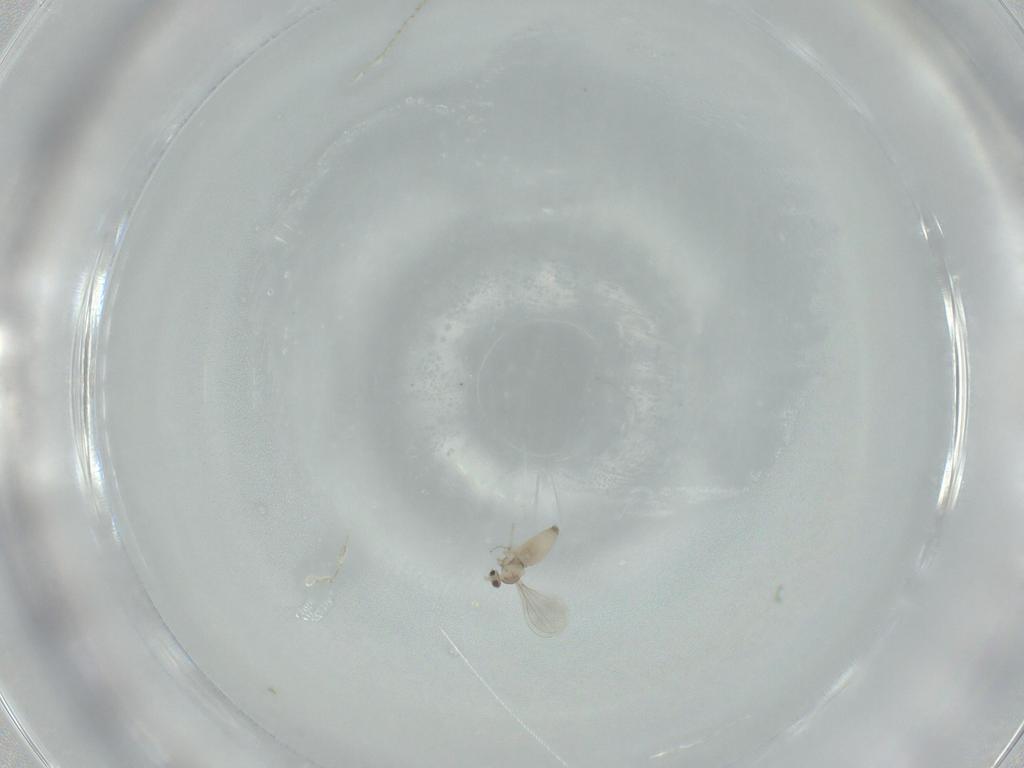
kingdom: Animalia
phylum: Arthropoda
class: Insecta
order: Diptera
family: Cecidomyiidae
